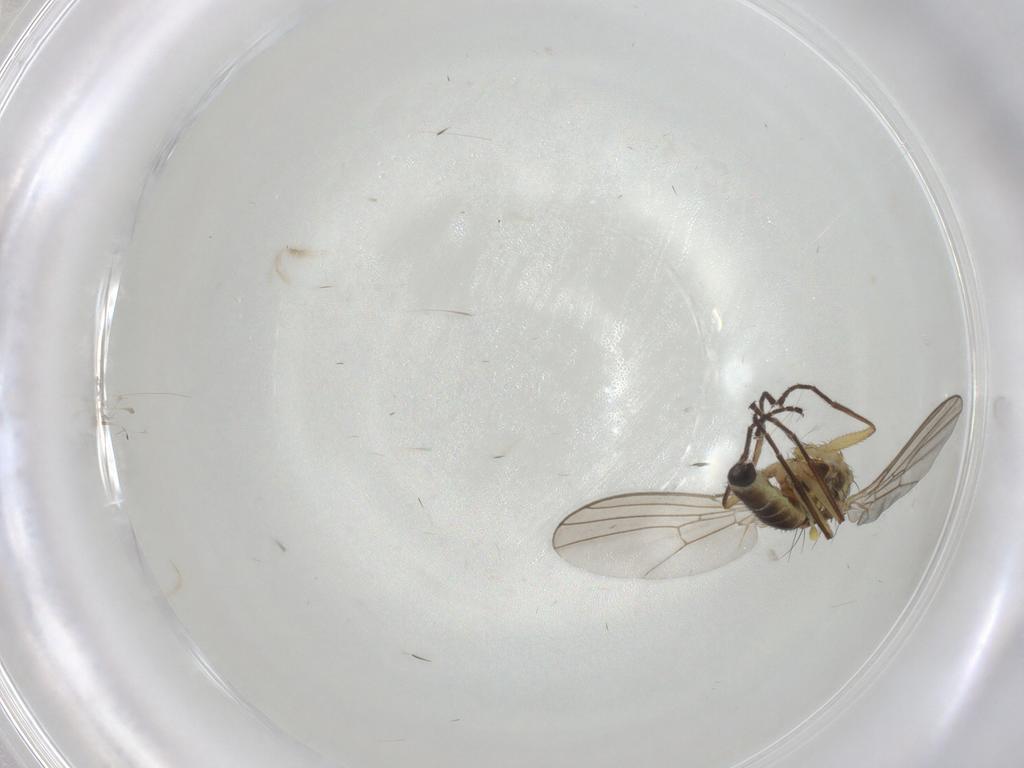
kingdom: Animalia
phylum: Arthropoda
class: Insecta
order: Diptera
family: Agromyzidae
